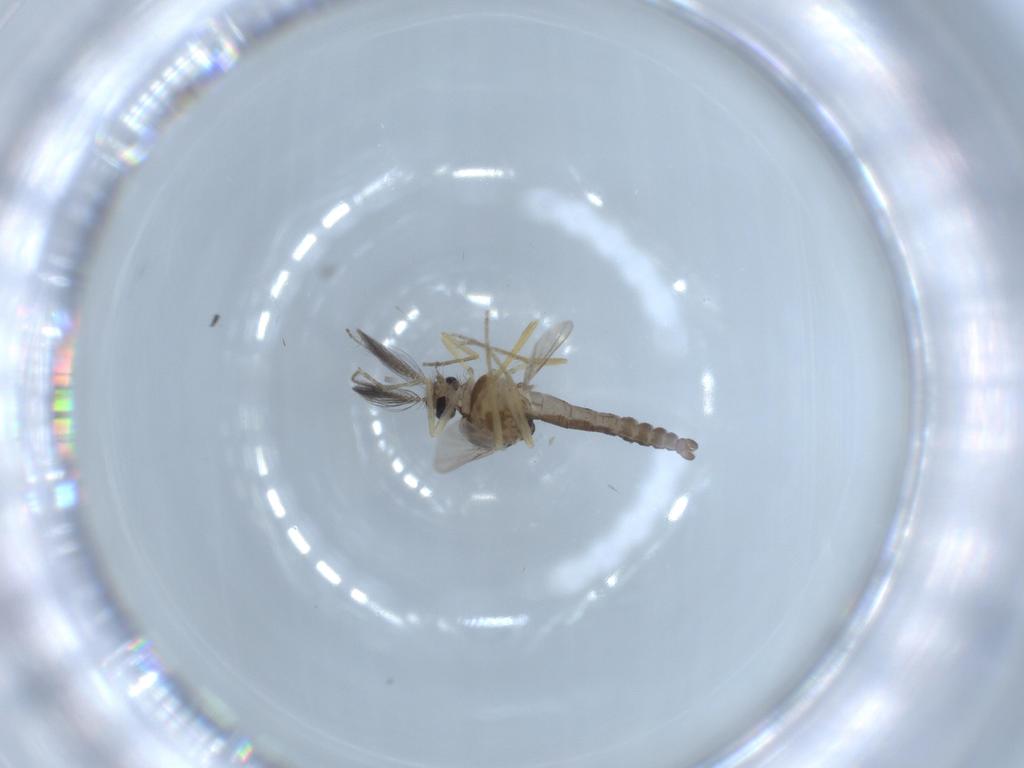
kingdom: Animalia
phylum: Arthropoda
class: Insecta
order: Diptera
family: Ceratopogonidae
